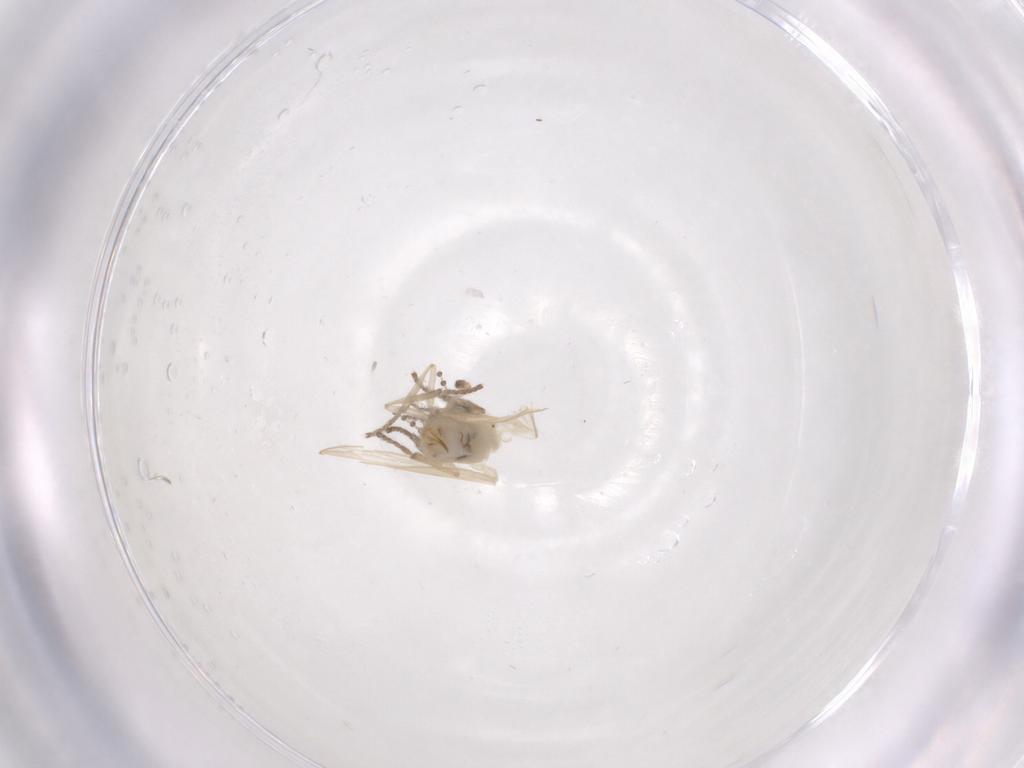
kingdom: Animalia
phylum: Arthropoda
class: Insecta
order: Diptera
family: Psychodidae
